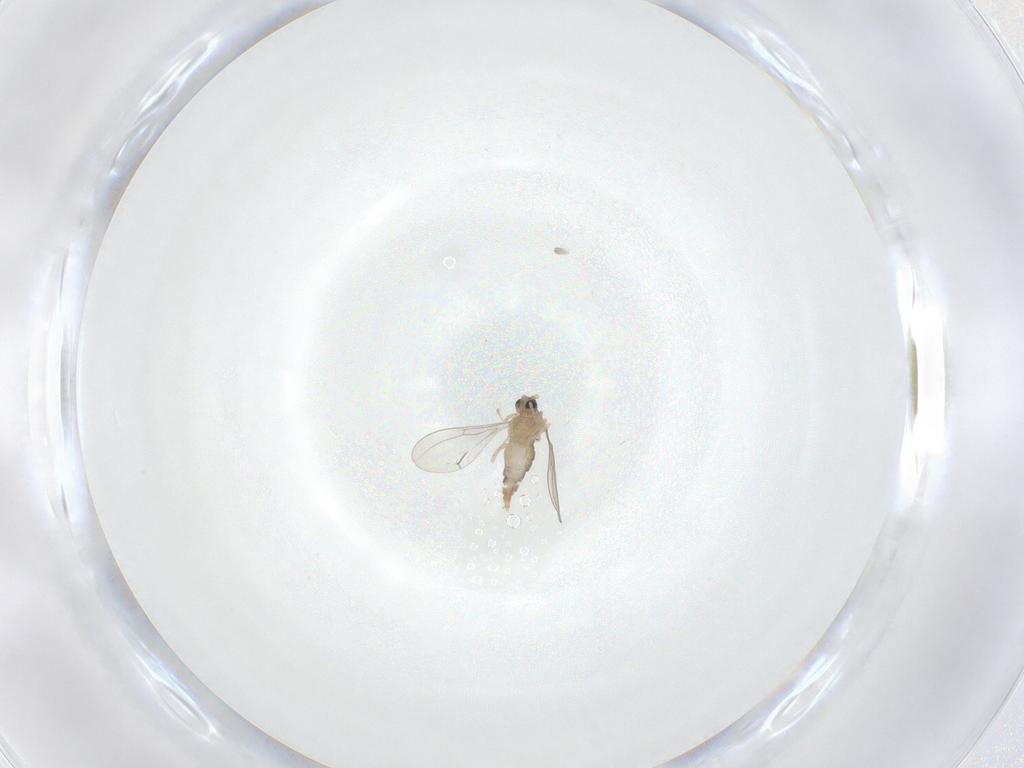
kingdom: Animalia
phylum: Arthropoda
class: Insecta
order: Diptera
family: Cecidomyiidae
